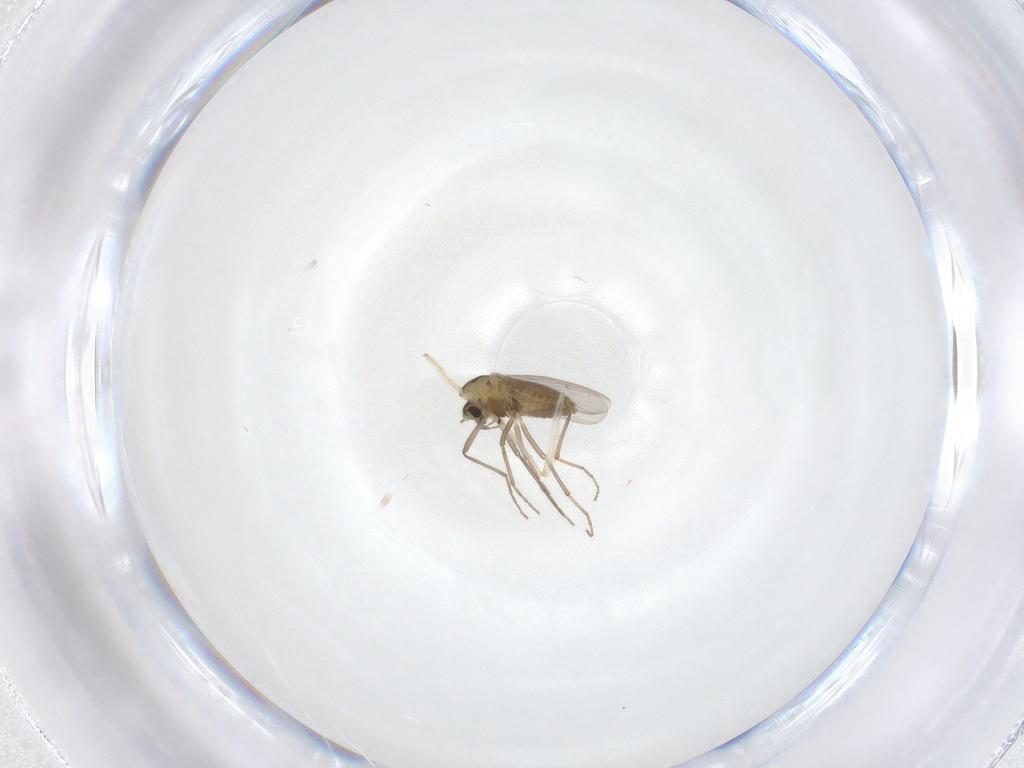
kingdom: Animalia
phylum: Arthropoda
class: Insecta
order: Diptera
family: Chironomidae
